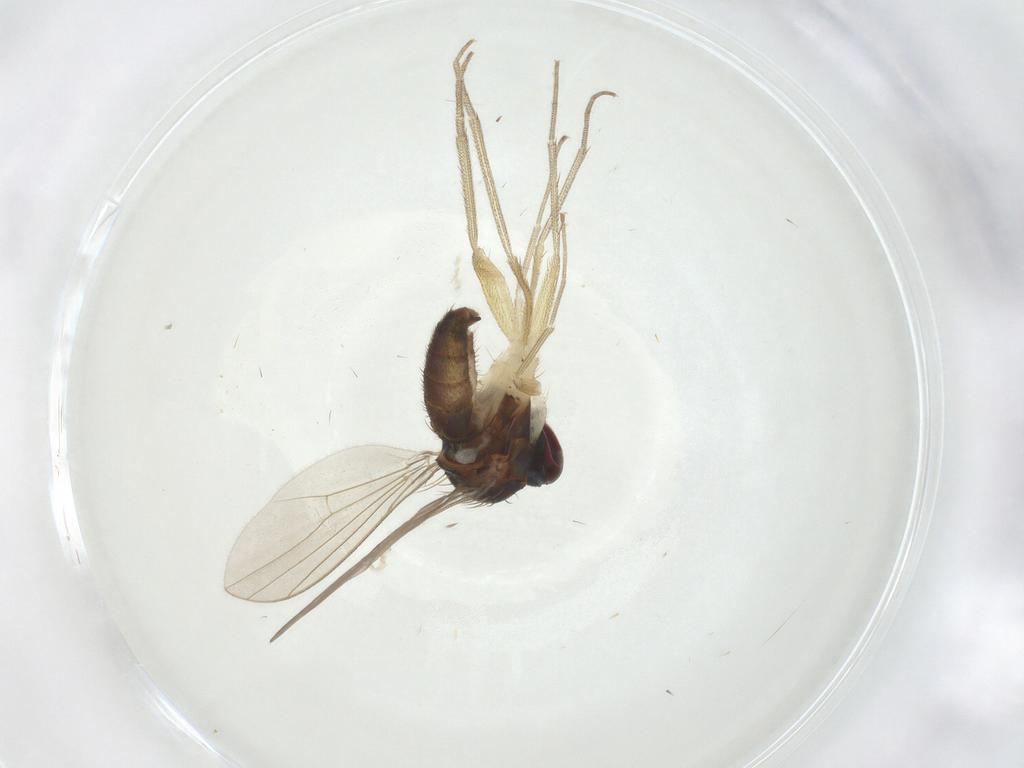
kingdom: Animalia
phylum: Arthropoda
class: Insecta
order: Diptera
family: Dolichopodidae
